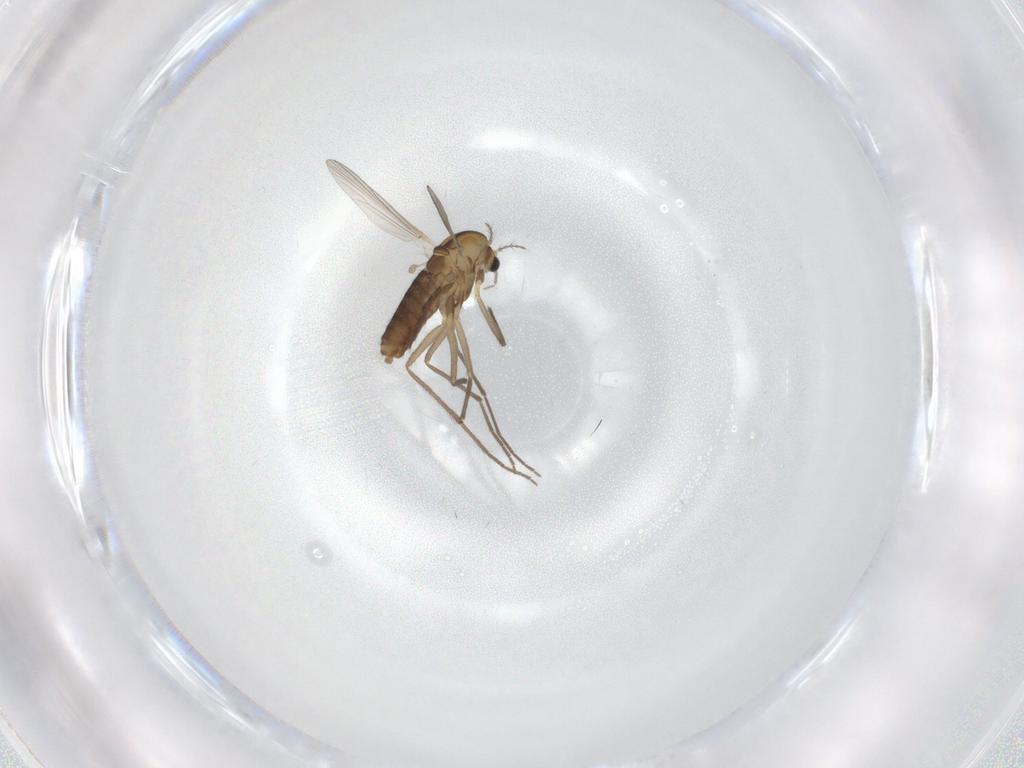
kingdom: Animalia
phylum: Arthropoda
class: Insecta
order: Diptera
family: Chironomidae
